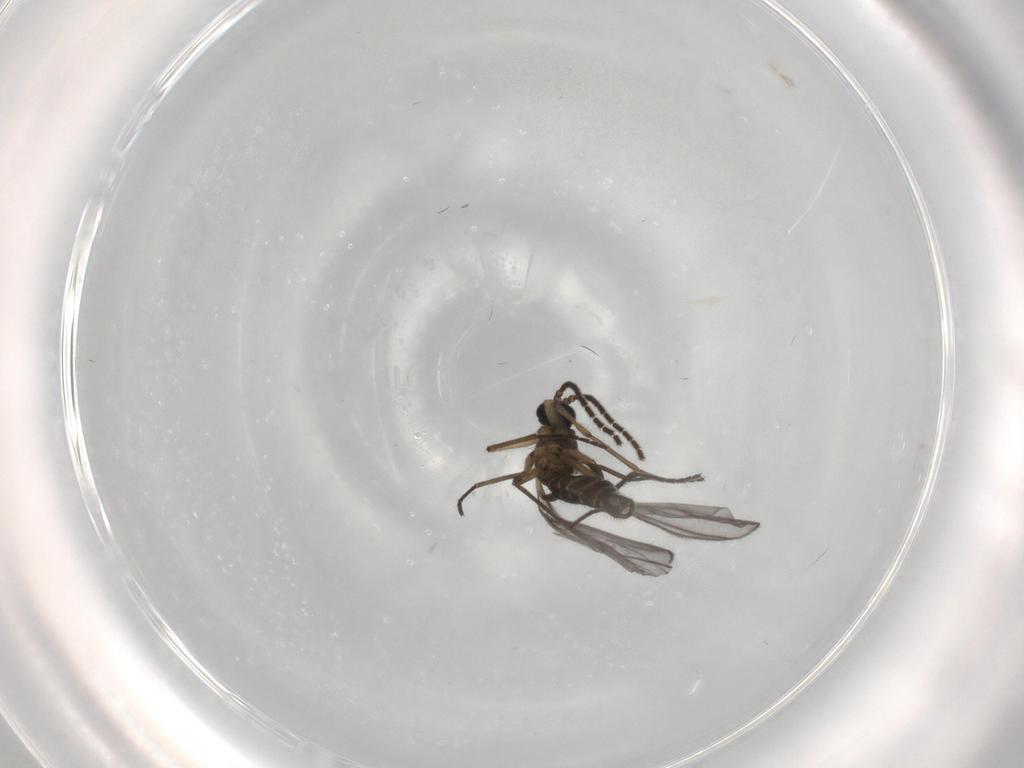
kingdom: Animalia
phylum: Arthropoda
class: Insecta
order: Diptera
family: Sciaridae
